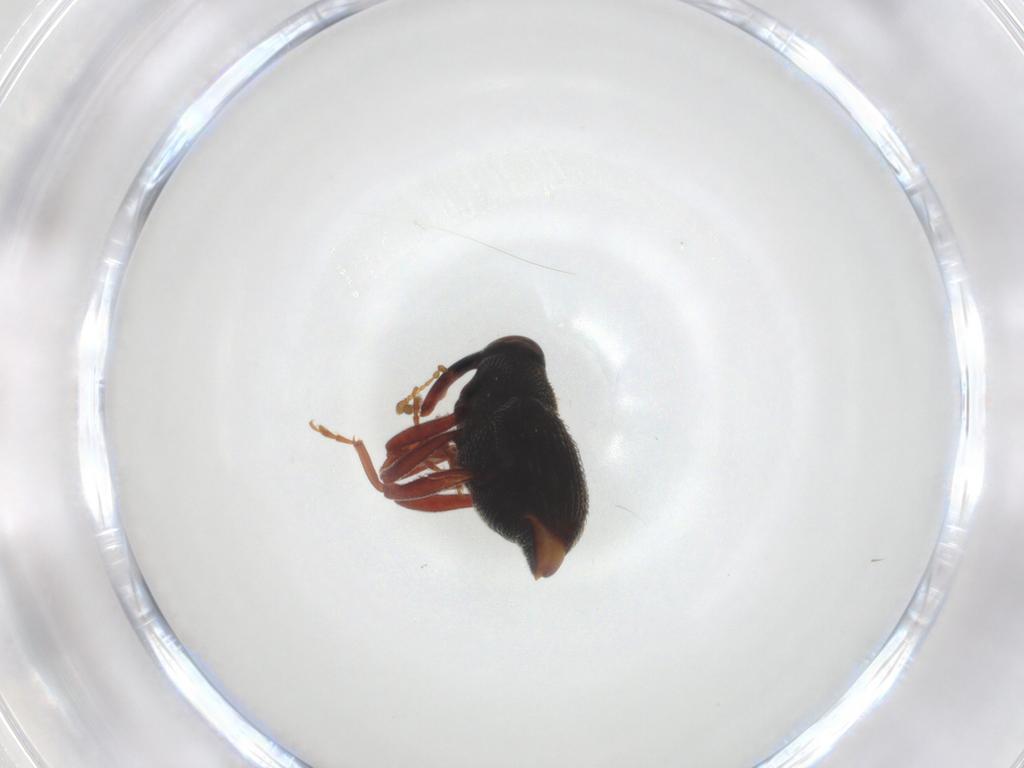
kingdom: Animalia
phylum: Arthropoda
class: Insecta
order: Coleoptera
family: Curculionidae
